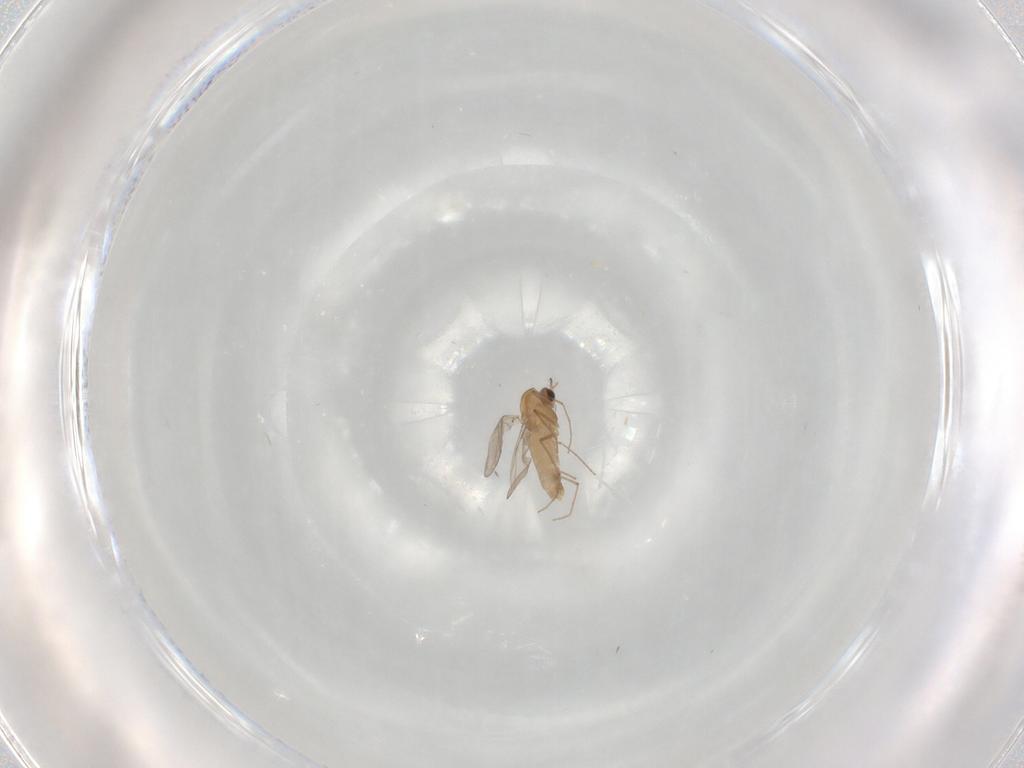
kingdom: Animalia
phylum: Arthropoda
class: Insecta
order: Diptera
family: Chironomidae
